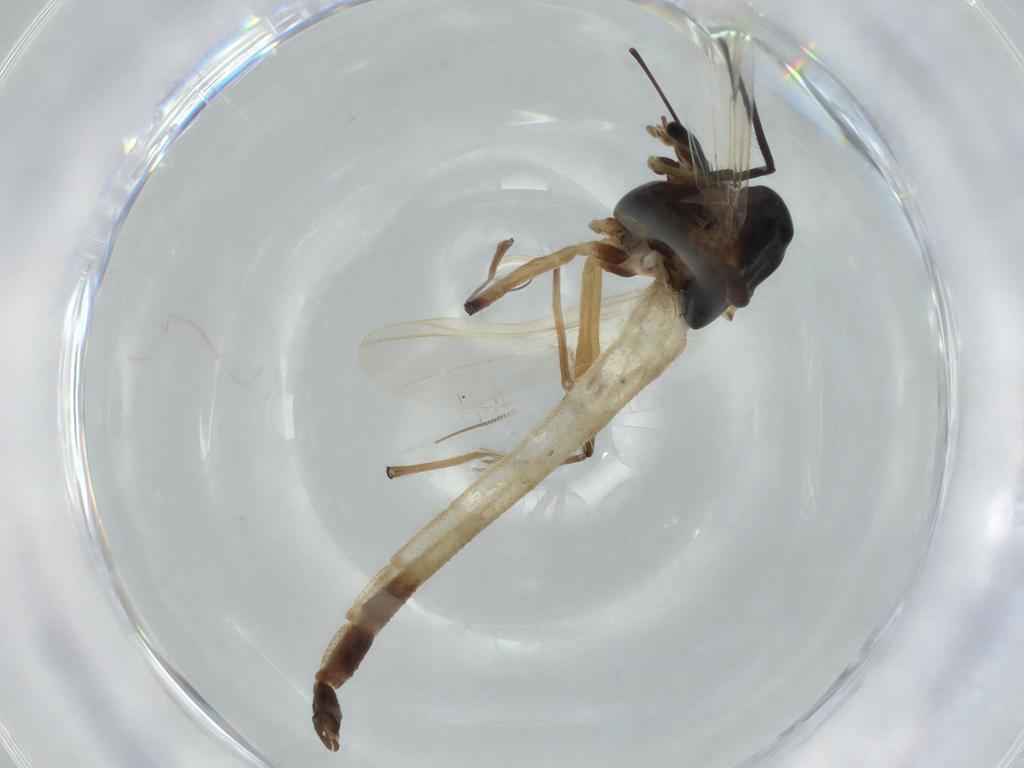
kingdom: Animalia
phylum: Arthropoda
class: Insecta
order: Diptera
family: Chironomidae
